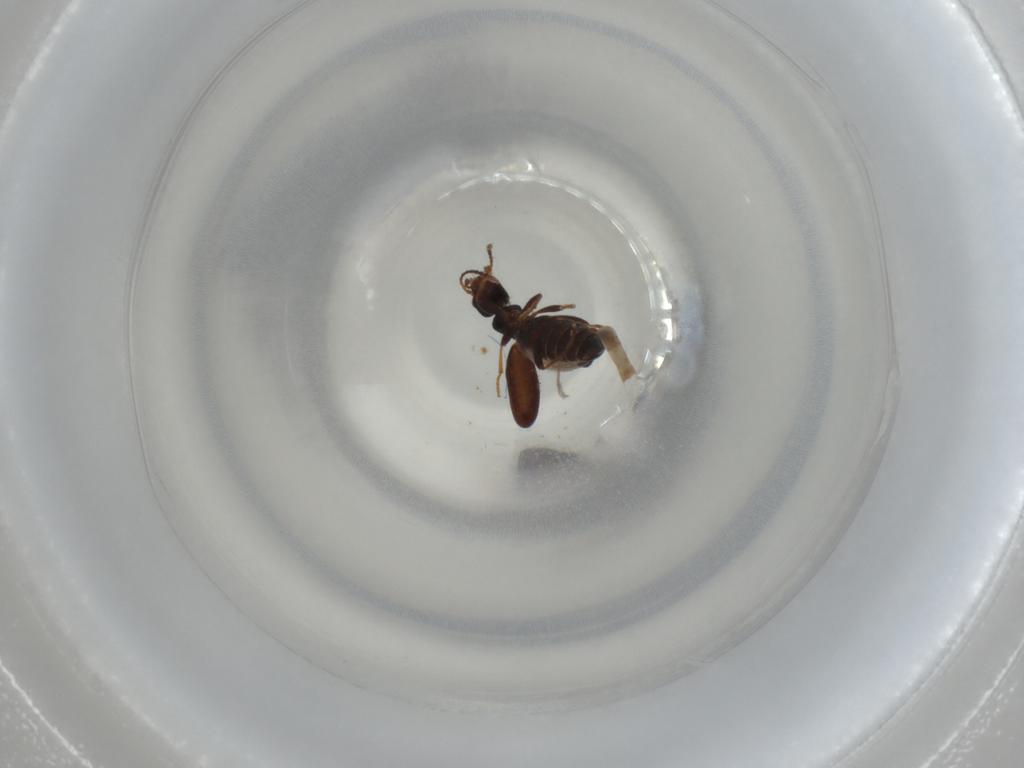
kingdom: Animalia
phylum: Arthropoda
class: Insecta
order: Coleoptera
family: Anthicidae
